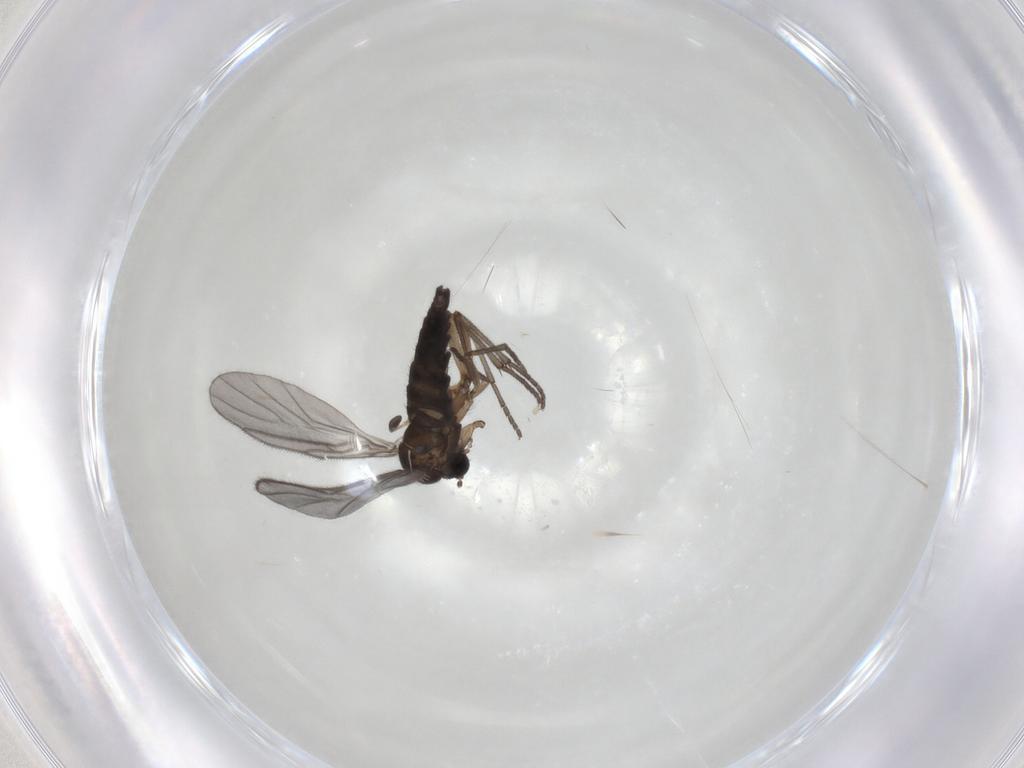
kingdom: Animalia
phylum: Arthropoda
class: Insecta
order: Diptera
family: Sciaridae
